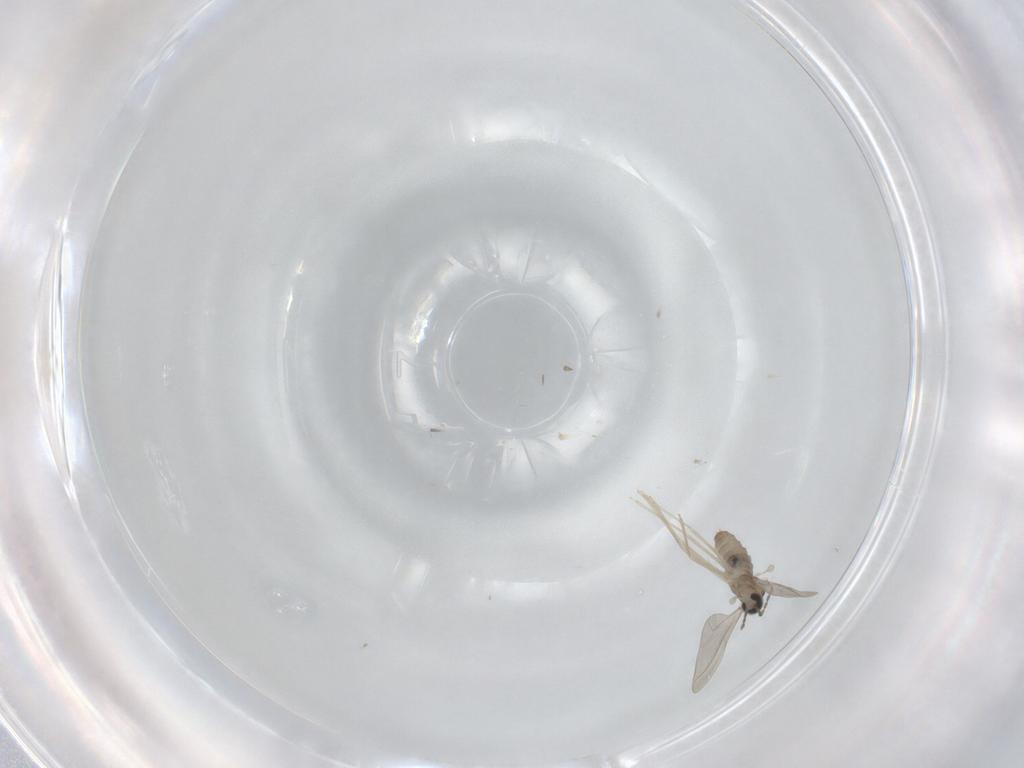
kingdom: Animalia
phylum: Arthropoda
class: Insecta
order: Diptera
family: Cecidomyiidae
